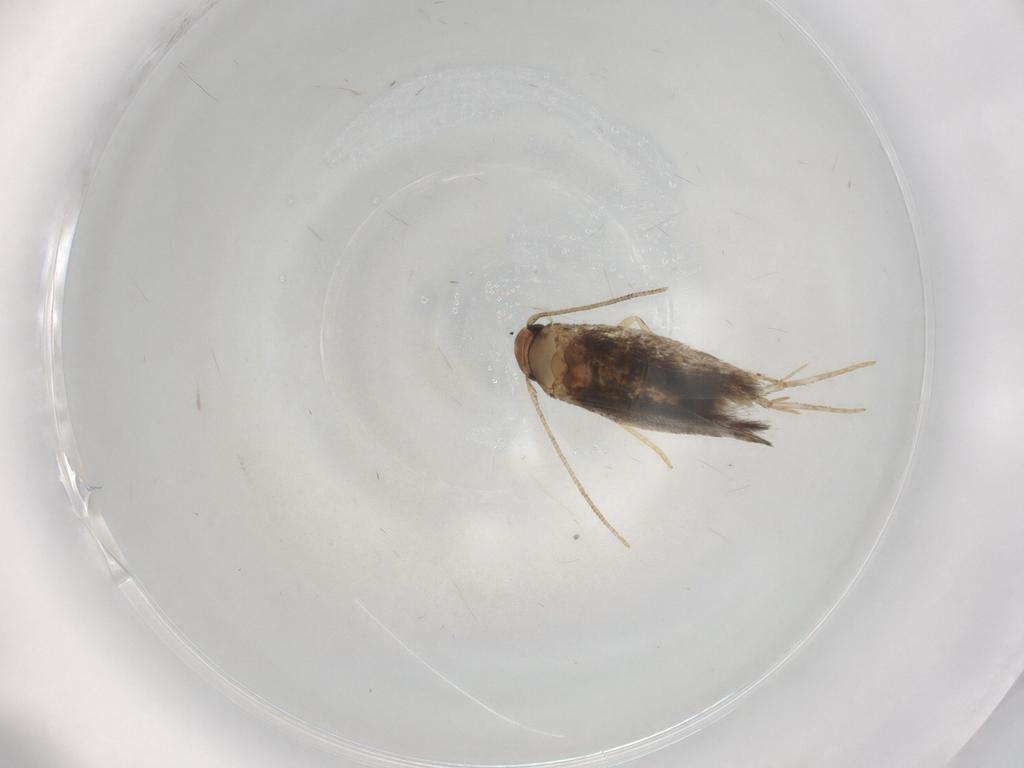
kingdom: Animalia
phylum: Arthropoda
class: Insecta
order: Lepidoptera
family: Gelechiidae
